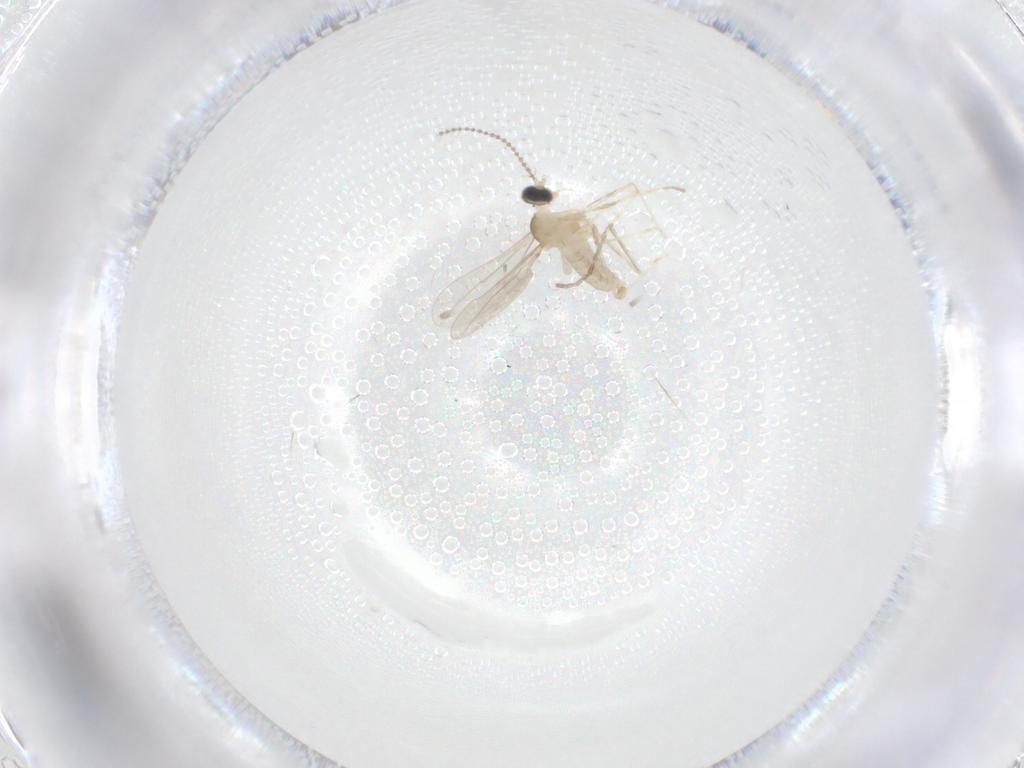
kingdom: Animalia
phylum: Arthropoda
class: Insecta
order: Diptera
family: Cecidomyiidae
